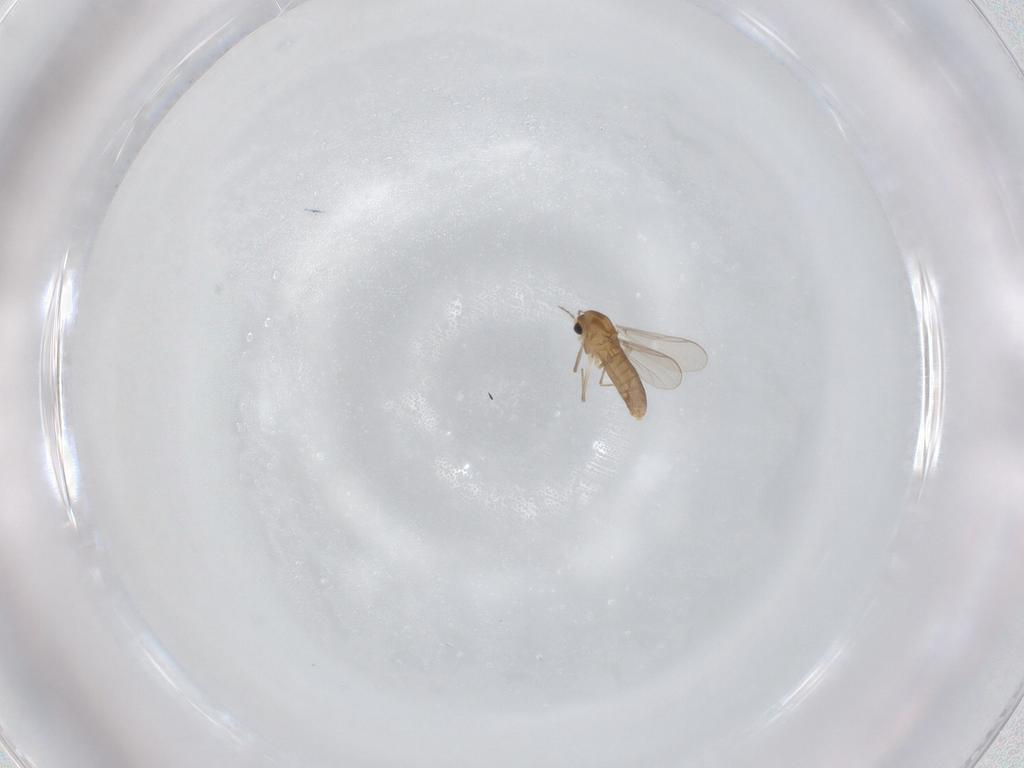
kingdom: Animalia
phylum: Arthropoda
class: Insecta
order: Diptera
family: Chironomidae
